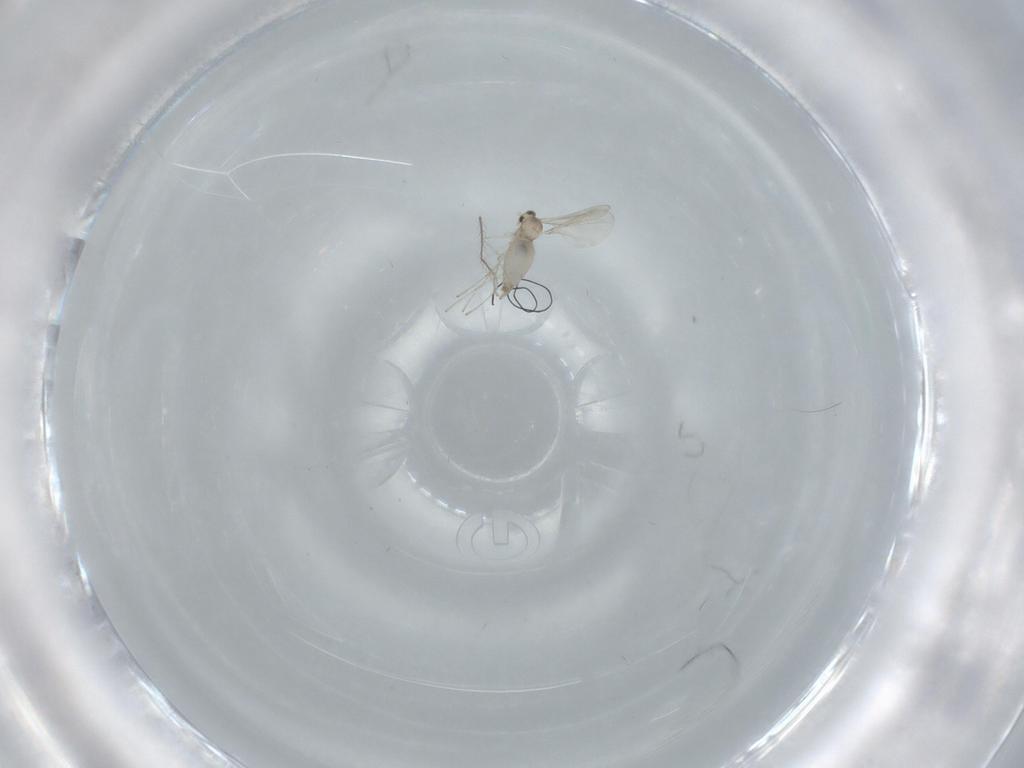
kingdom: Animalia
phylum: Arthropoda
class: Insecta
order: Diptera
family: Cecidomyiidae
